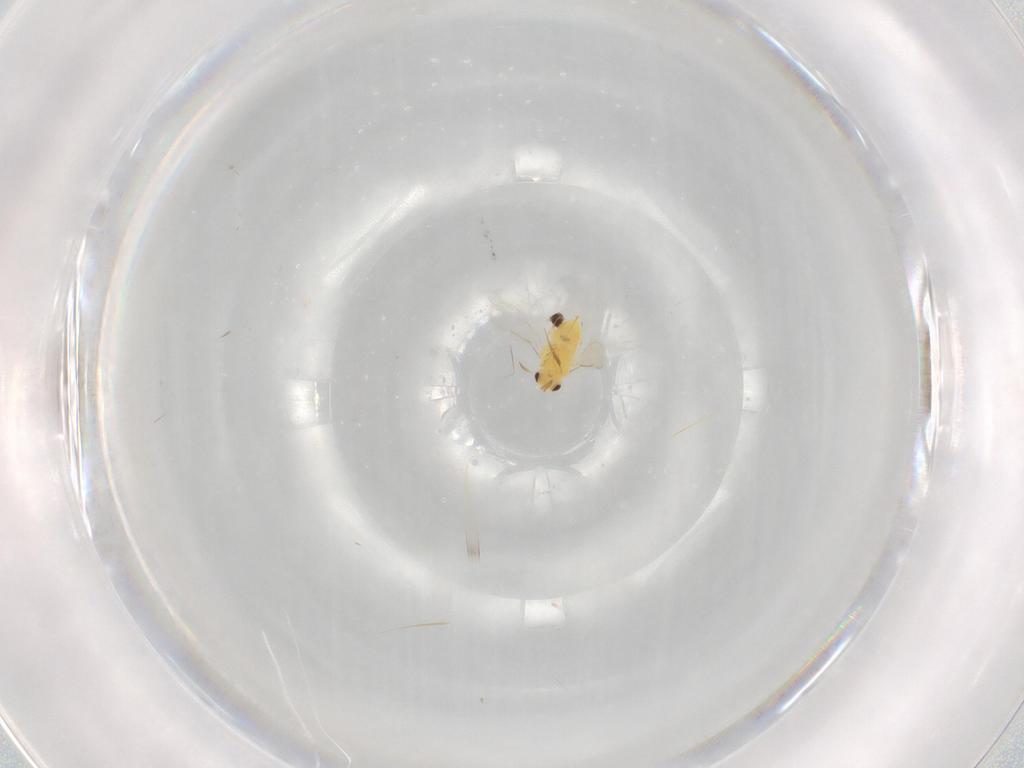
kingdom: Animalia
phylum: Arthropoda
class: Insecta
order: Hymenoptera
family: Aphelinidae
